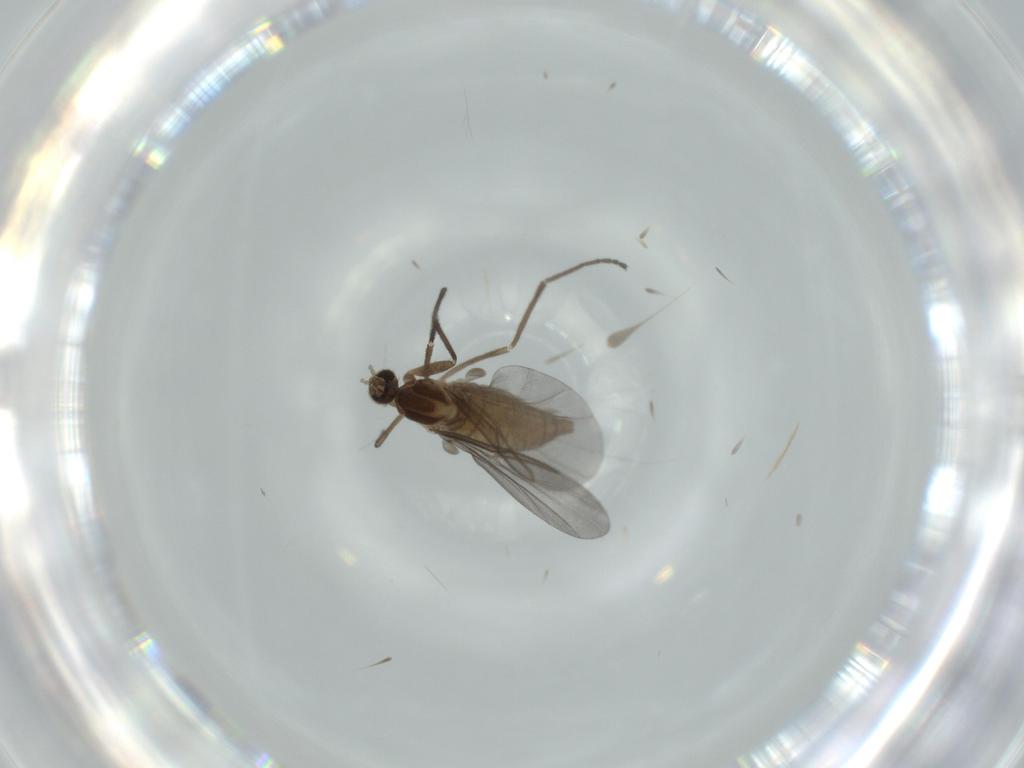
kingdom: Animalia
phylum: Arthropoda
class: Insecta
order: Diptera
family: Cecidomyiidae
